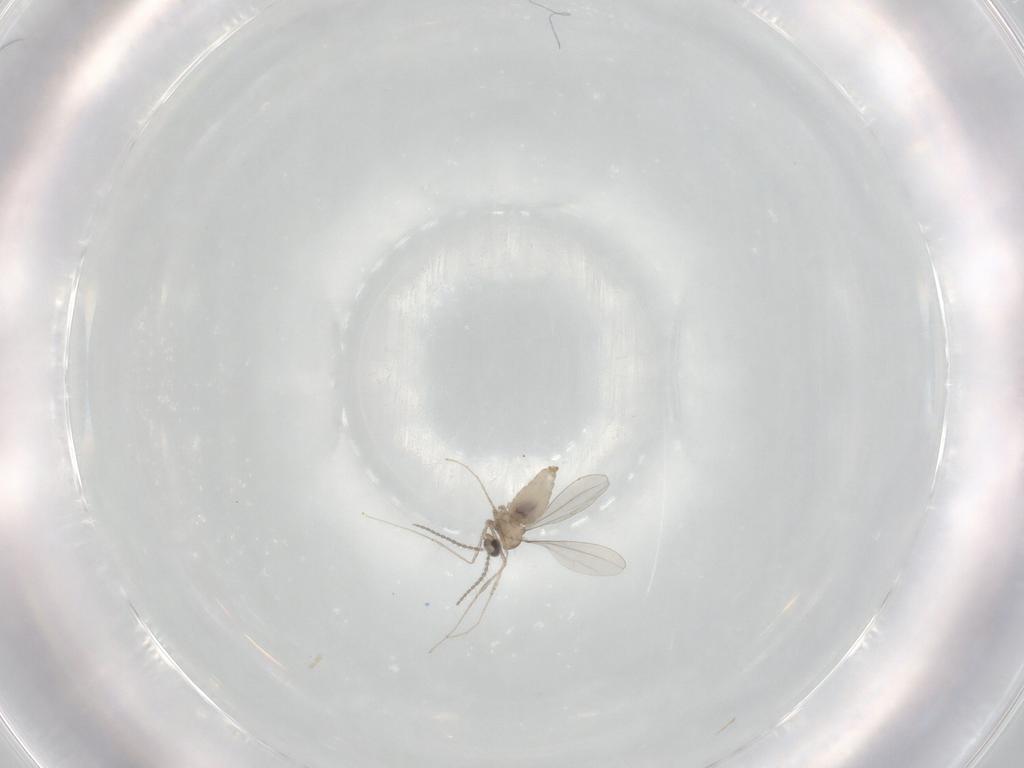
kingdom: Animalia
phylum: Arthropoda
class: Insecta
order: Diptera
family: Cecidomyiidae
